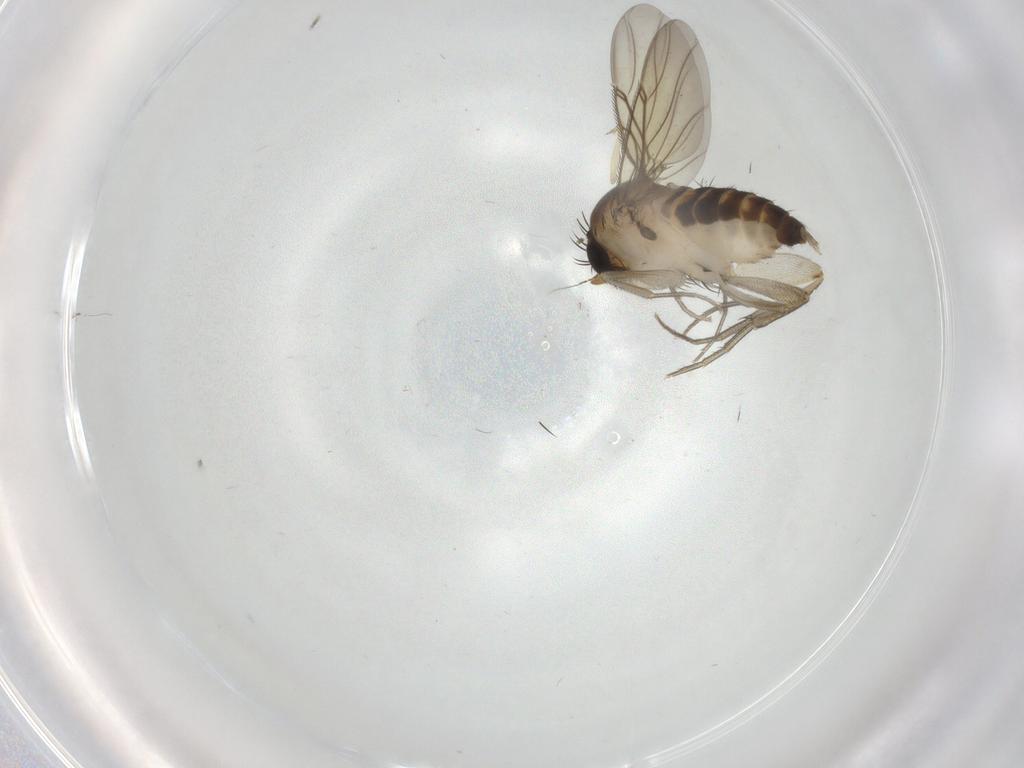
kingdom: Animalia
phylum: Arthropoda
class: Insecta
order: Diptera
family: Phoridae
